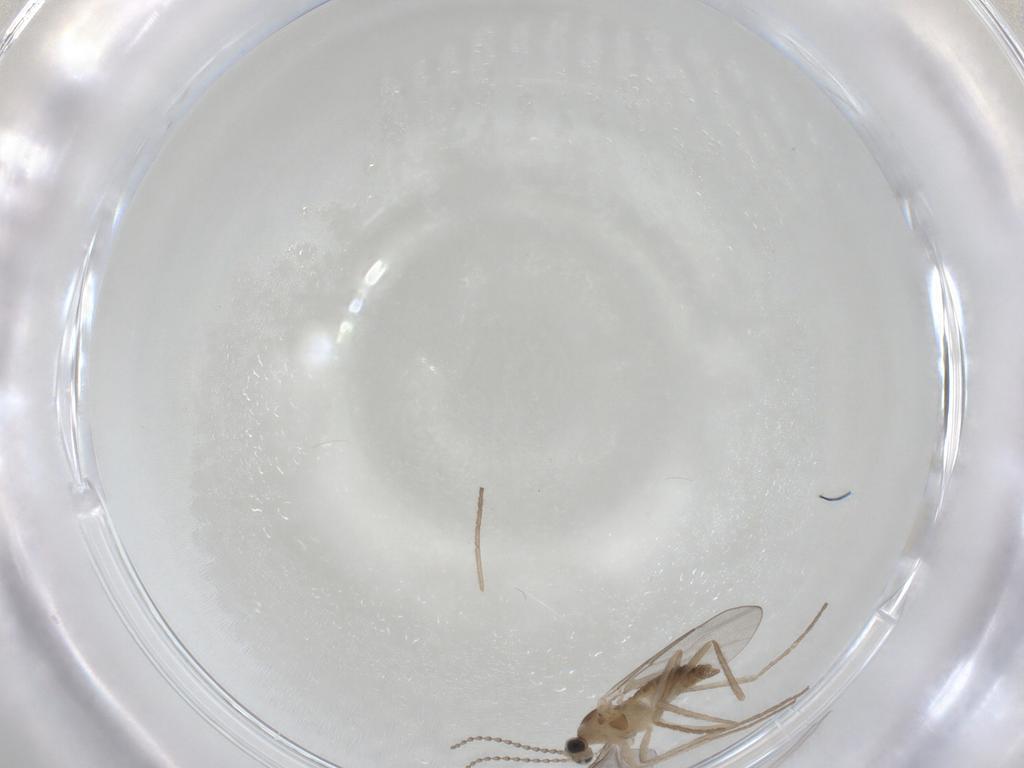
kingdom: Animalia
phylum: Arthropoda
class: Insecta
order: Diptera
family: Cecidomyiidae
